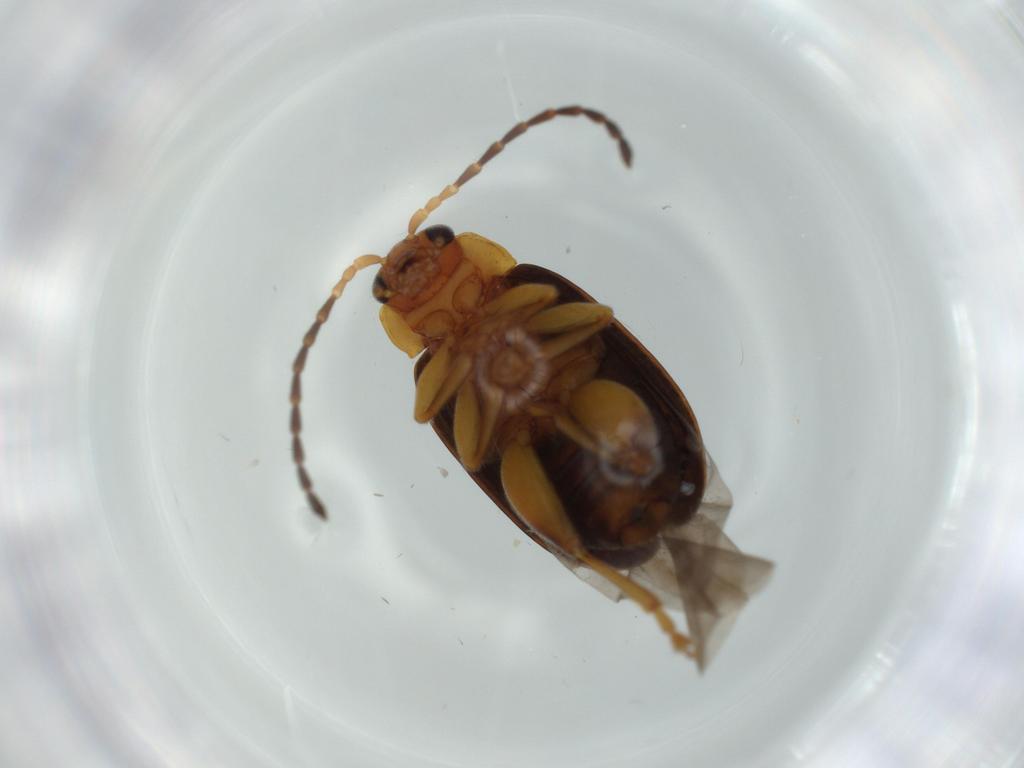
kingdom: Animalia
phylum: Arthropoda
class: Insecta
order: Coleoptera
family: Chrysomelidae
